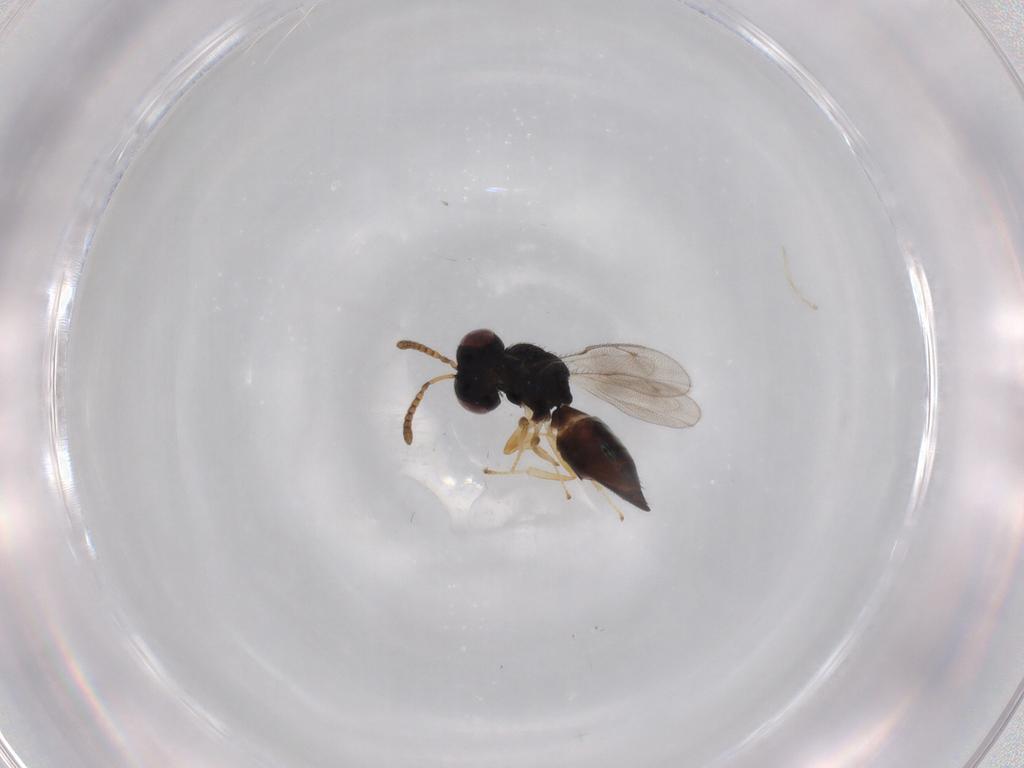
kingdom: Animalia
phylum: Arthropoda
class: Insecta
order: Hymenoptera
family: Pteromalidae
